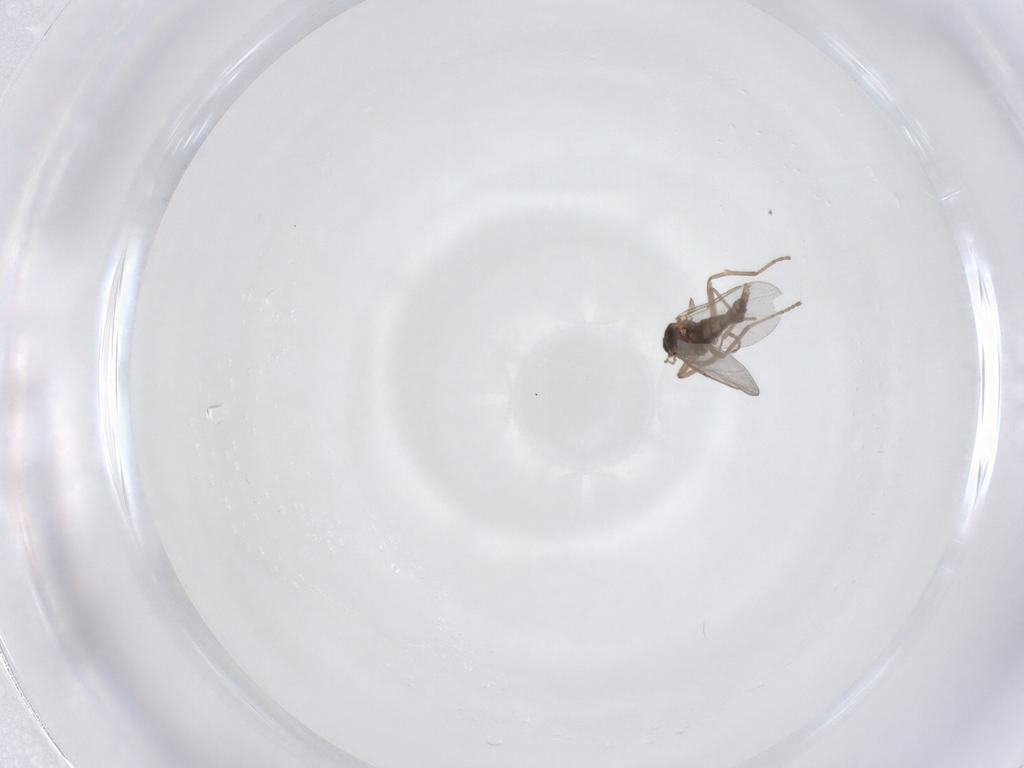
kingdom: Animalia
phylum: Arthropoda
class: Insecta
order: Diptera
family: Cecidomyiidae
